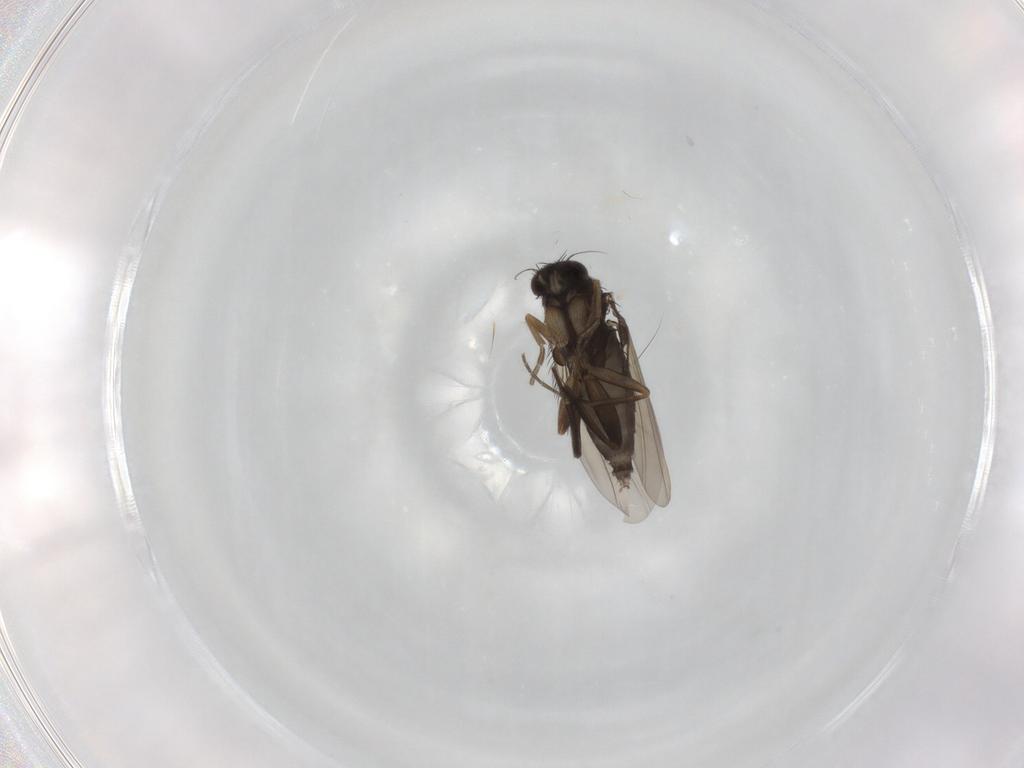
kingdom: Animalia
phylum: Arthropoda
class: Insecta
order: Diptera
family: Phoridae
